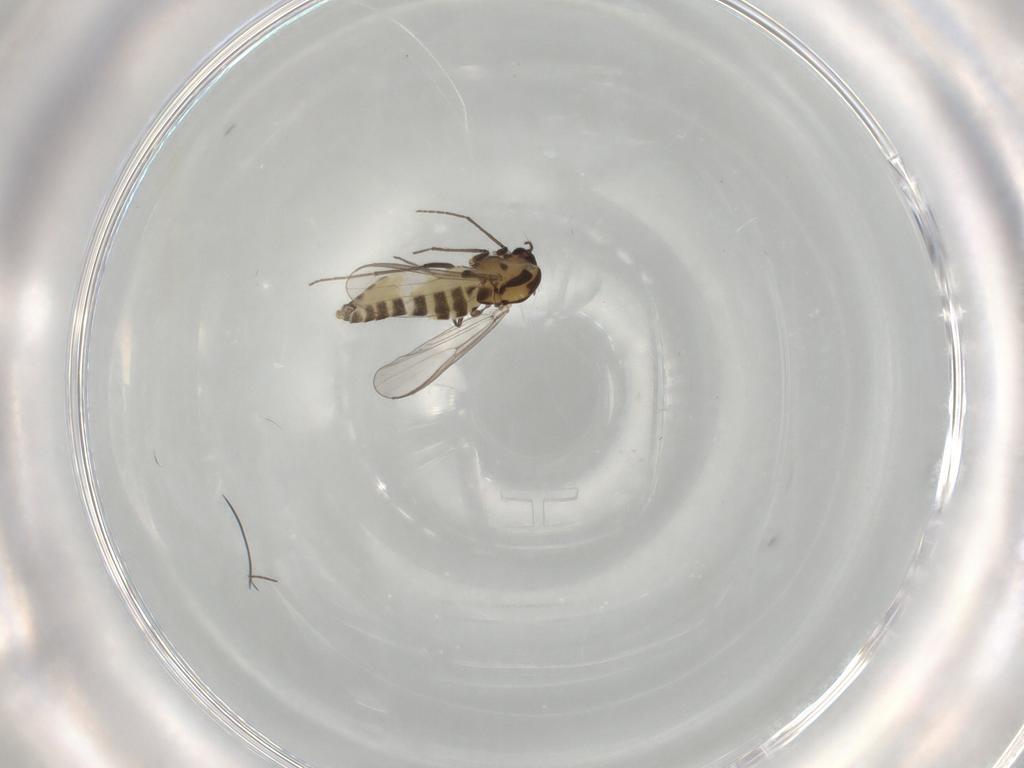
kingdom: Animalia
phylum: Arthropoda
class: Insecta
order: Diptera
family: Chironomidae
